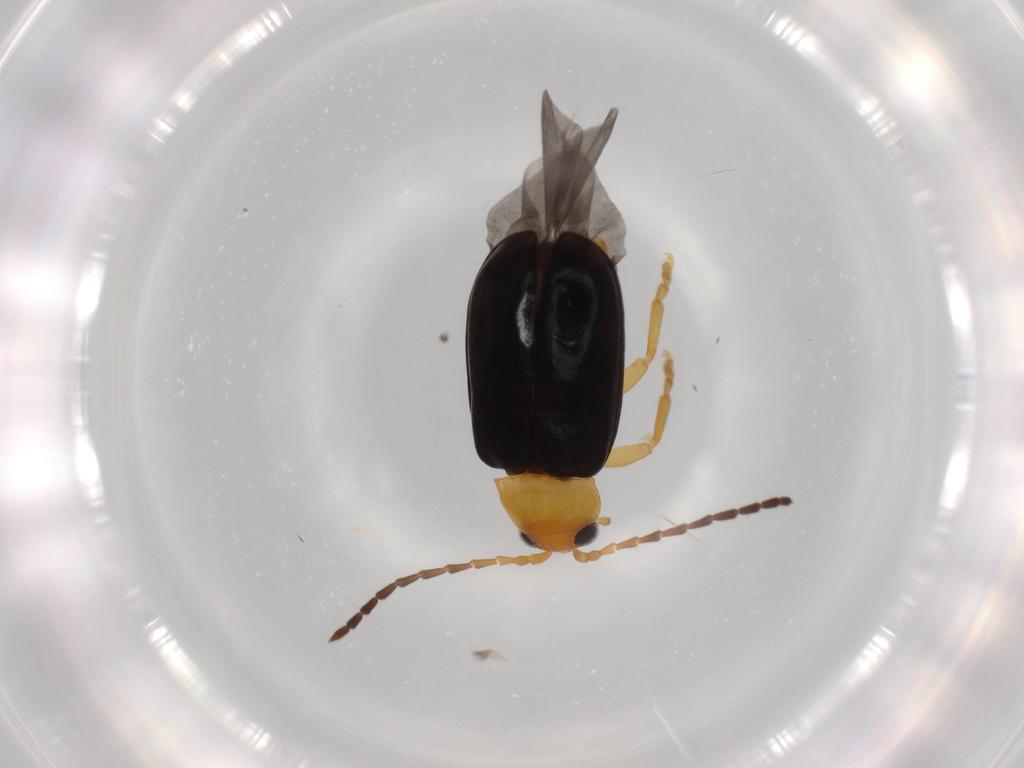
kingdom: Animalia
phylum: Arthropoda
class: Insecta
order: Coleoptera
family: Chrysomelidae
